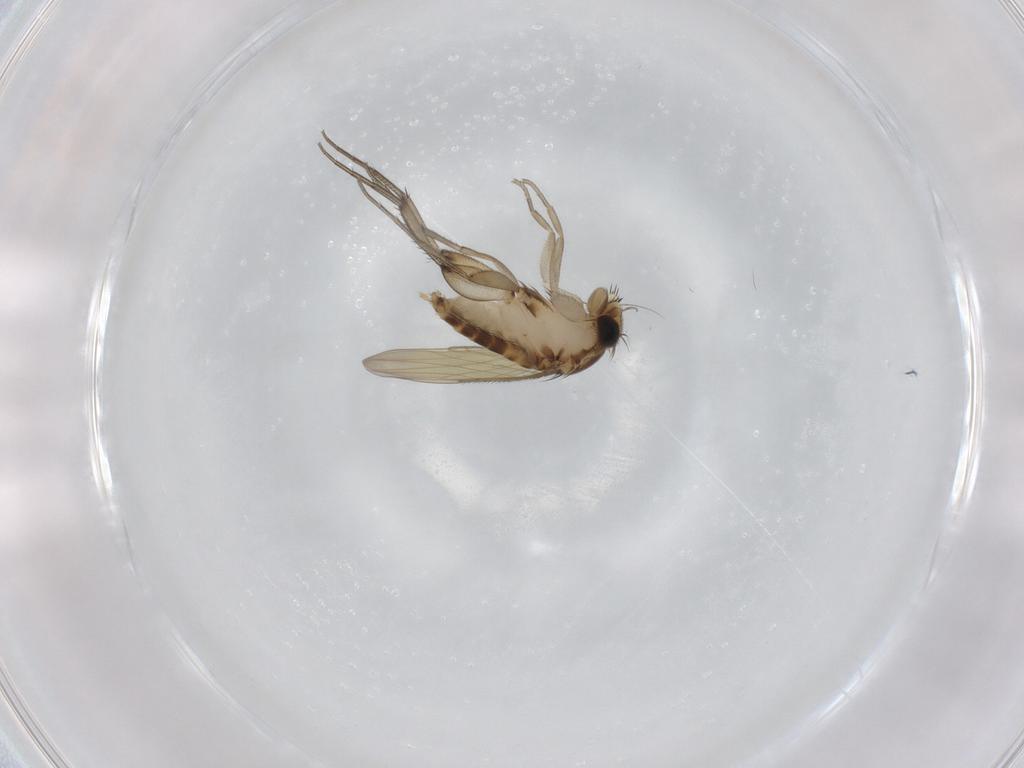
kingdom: Animalia
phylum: Arthropoda
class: Insecta
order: Diptera
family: Phoridae
